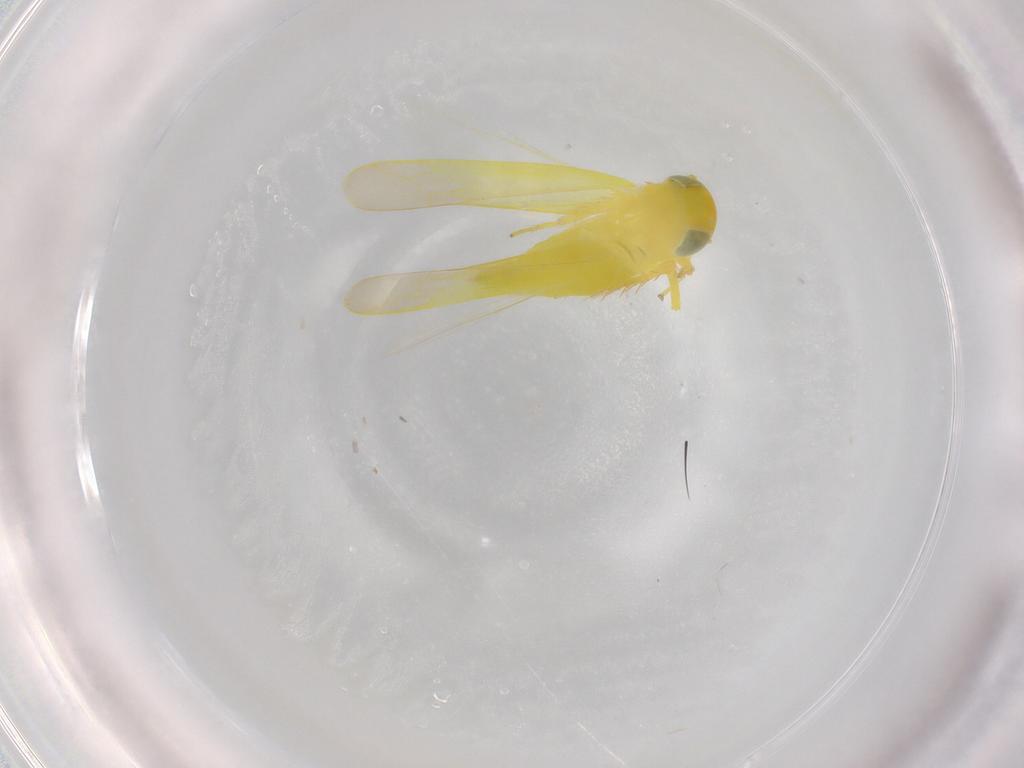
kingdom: Animalia
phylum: Arthropoda
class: Insecta
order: Hemiptera
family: Cicadellidae
